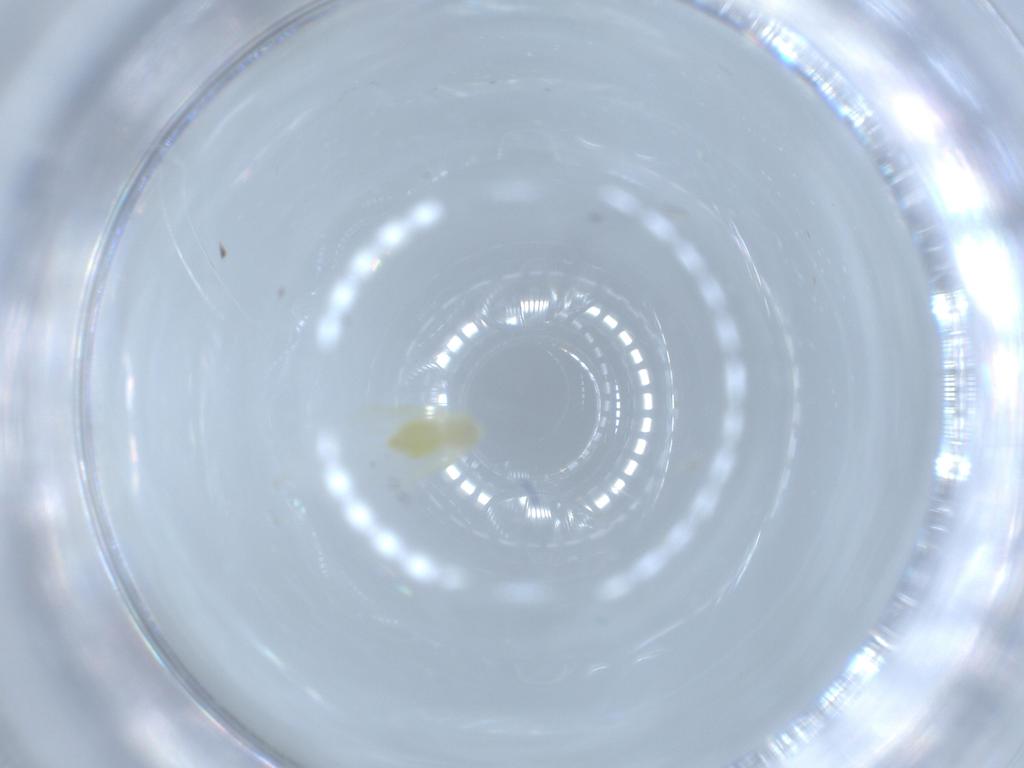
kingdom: Animalia
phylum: Arthropoda
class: Insecta
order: Hemiptera
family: Aleyrodidae
